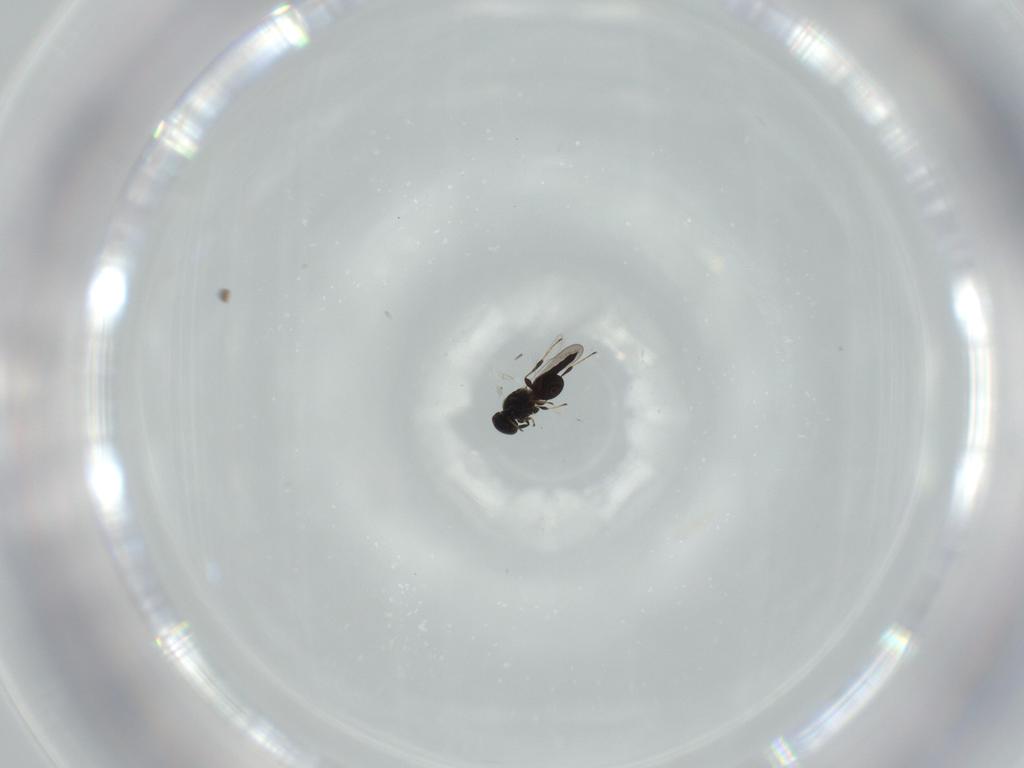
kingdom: Animalia
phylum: Arthropoda
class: Insecta
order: Hymenoptera
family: Platygastridae
